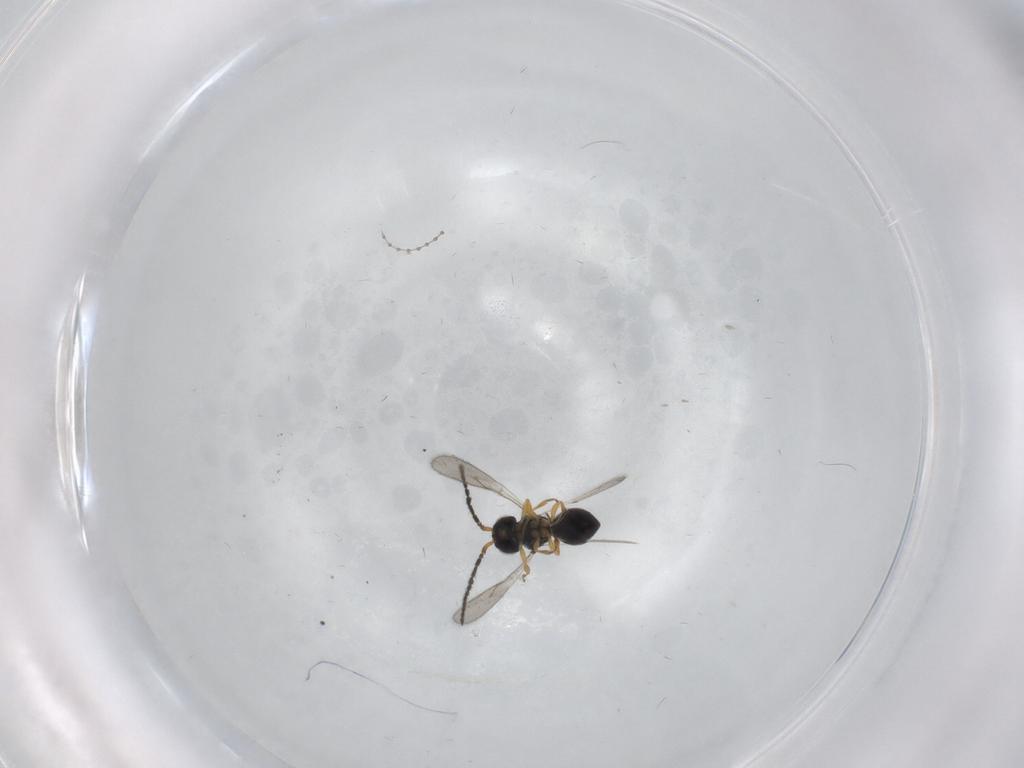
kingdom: Animalia
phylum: Arthropoda
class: Insecta
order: Hymenoptera
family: Scelionidae
